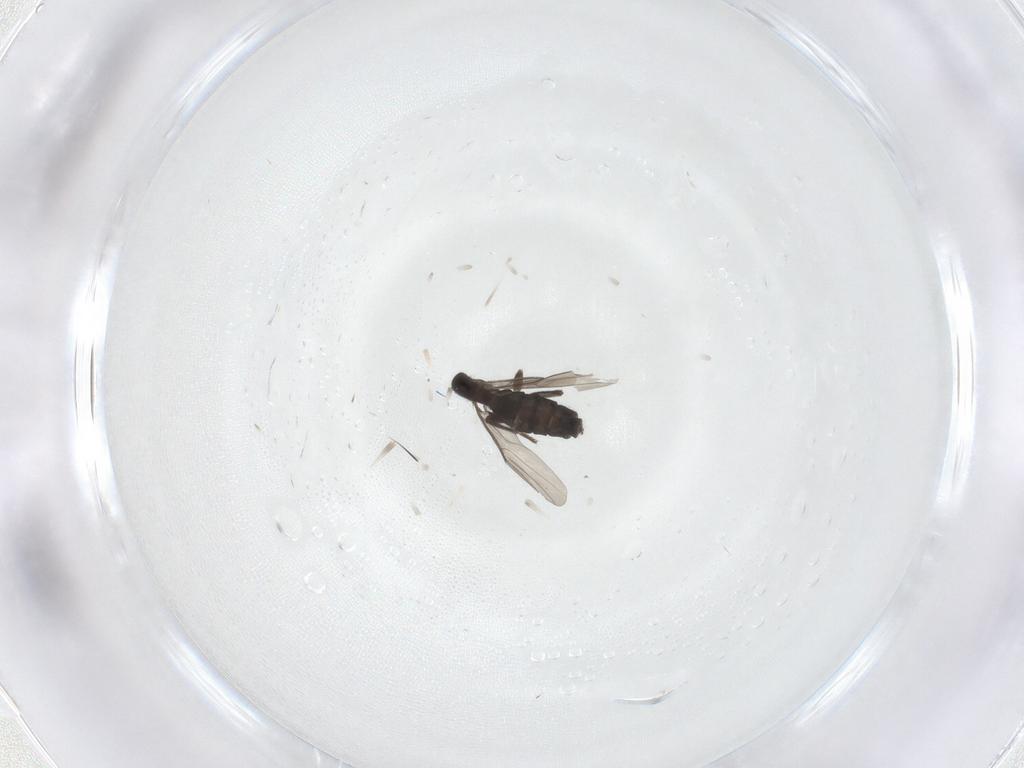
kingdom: Animalia
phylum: Arthropoda
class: Insecta
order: Diptera
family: Phoridae
